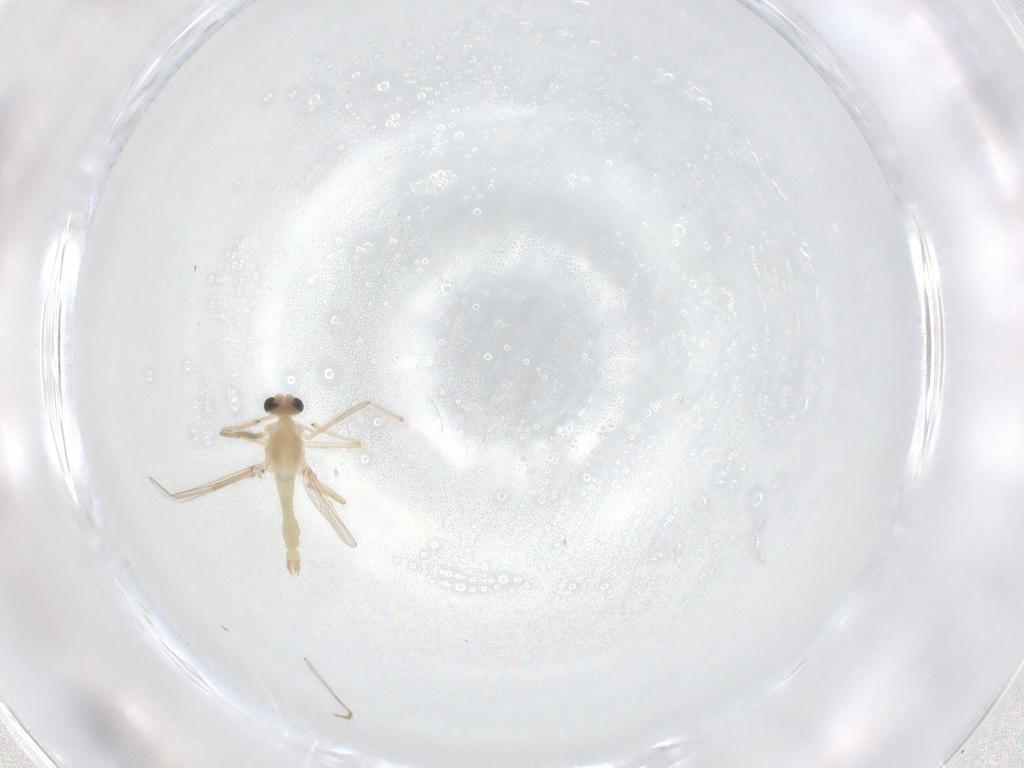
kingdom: Animalia
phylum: Arthropoda
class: Insecta
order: Diptera
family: Chironomidae
